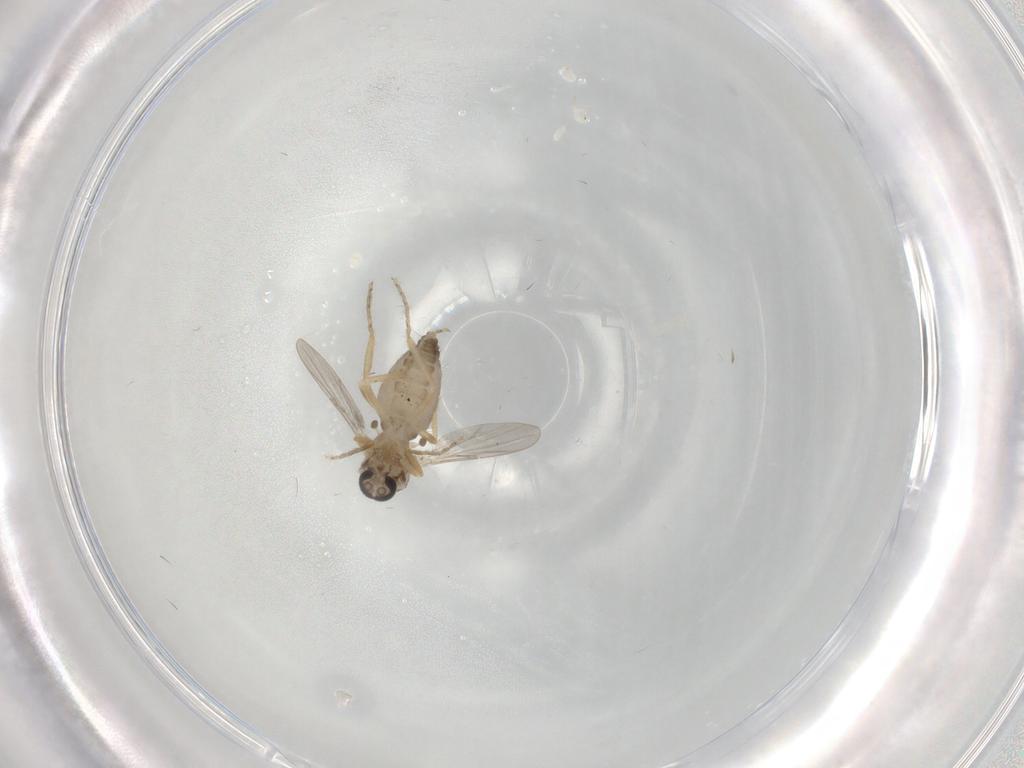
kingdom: Animalia
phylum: Arthropoda
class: Insecta
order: Diptera
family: Ceratopogonidae
